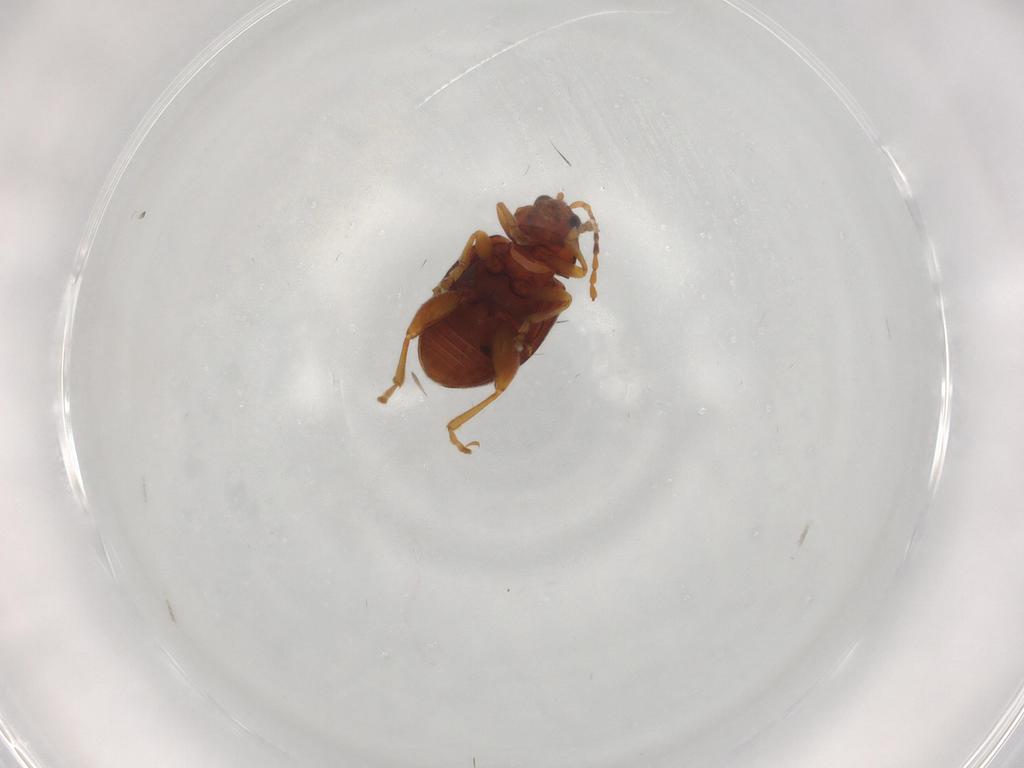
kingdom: Animalia
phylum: Arthropoda
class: Insecta
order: Coleoptera
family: Chrysomelidae
